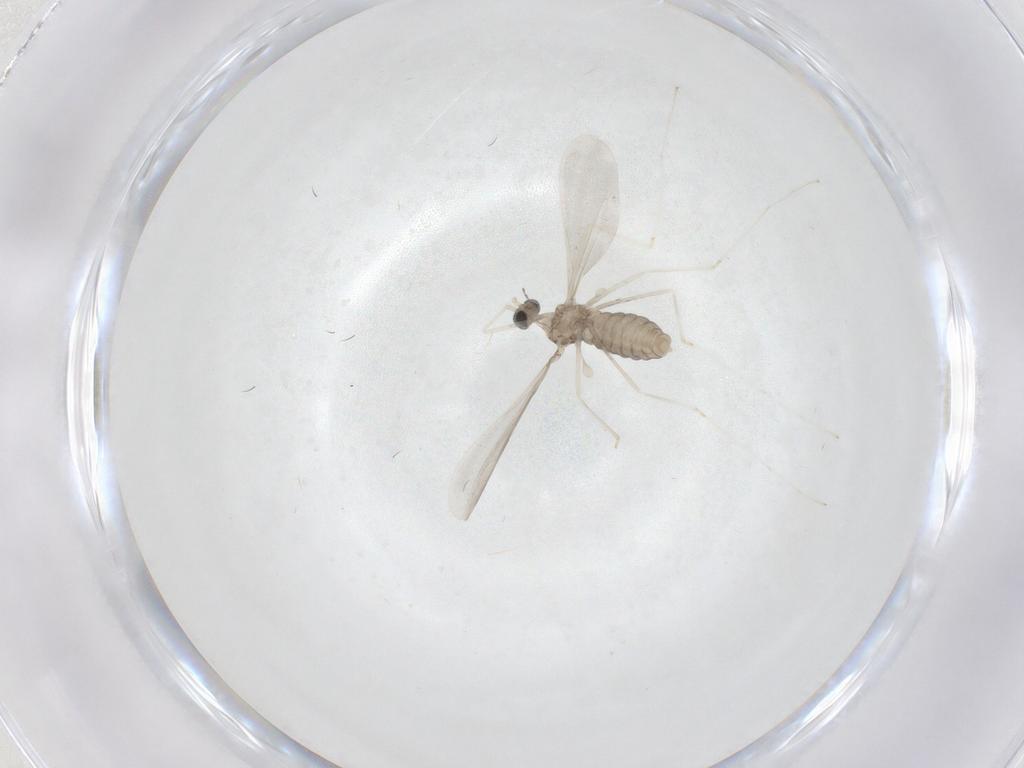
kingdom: Animalia
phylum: Arthropoda
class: Insecta
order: Diptera
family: Cecidomyiidae
